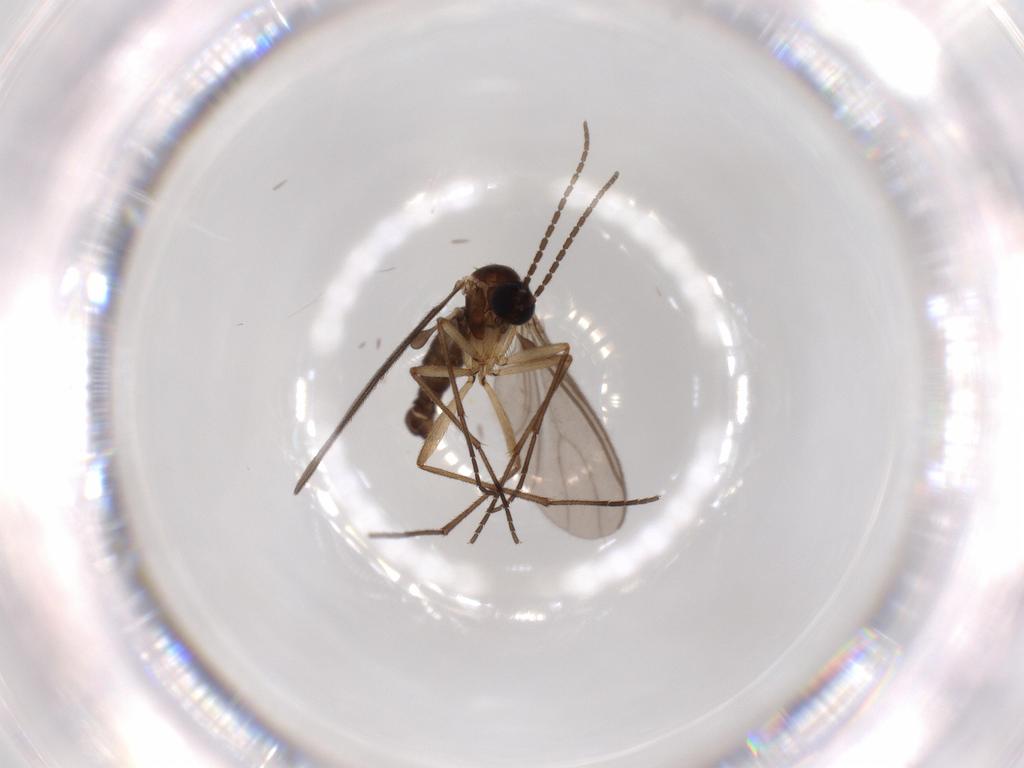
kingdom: Animalia
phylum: Arthropoda
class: Insecta
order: Diptera
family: Sciaridae
